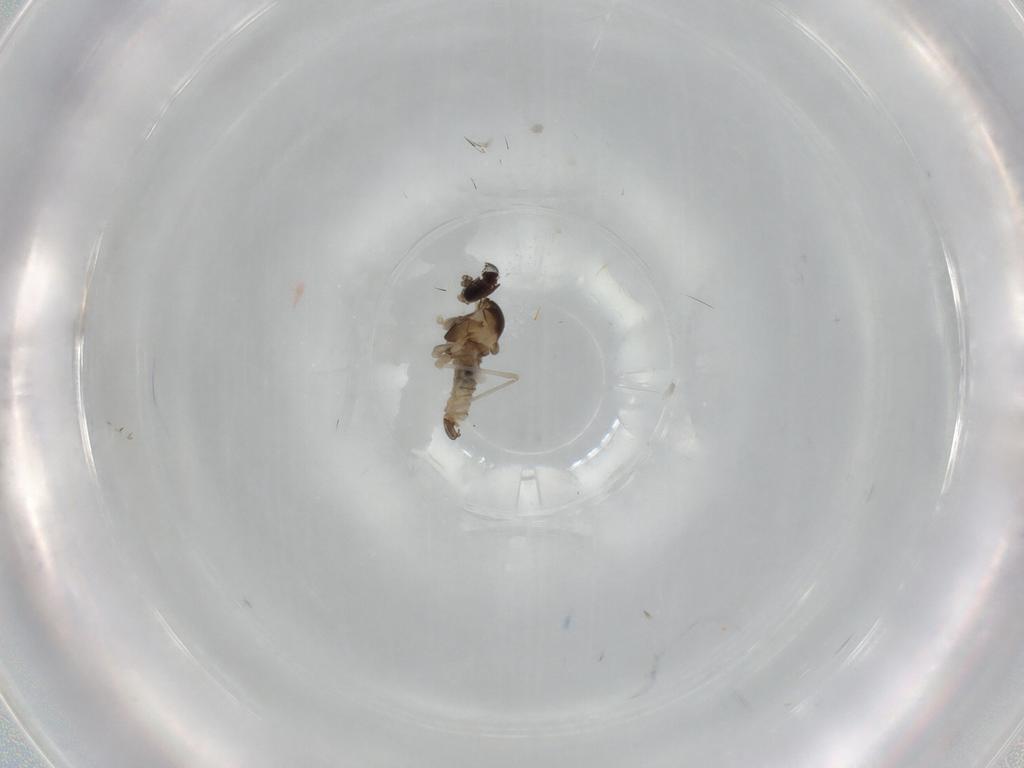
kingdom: Animalia
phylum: Arthropoda
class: Insecta
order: Diptera
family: Cecidomyiidae
